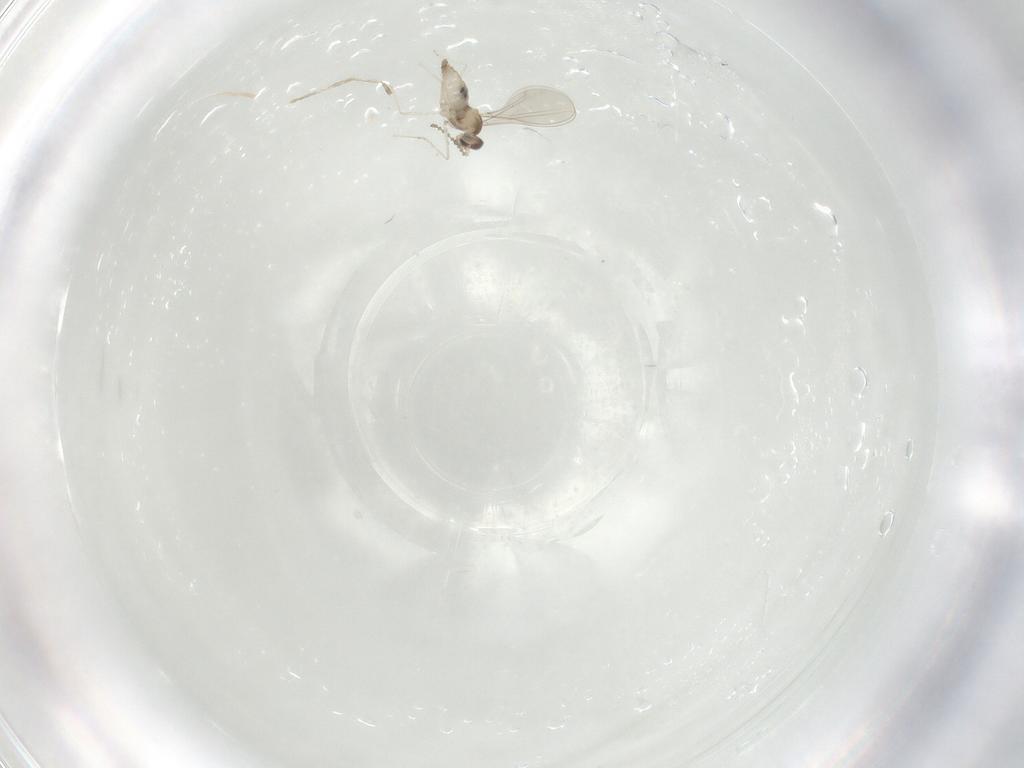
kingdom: Animalia
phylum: Arthropoda
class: Insecta
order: Diptera
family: Cecidomyiidae
